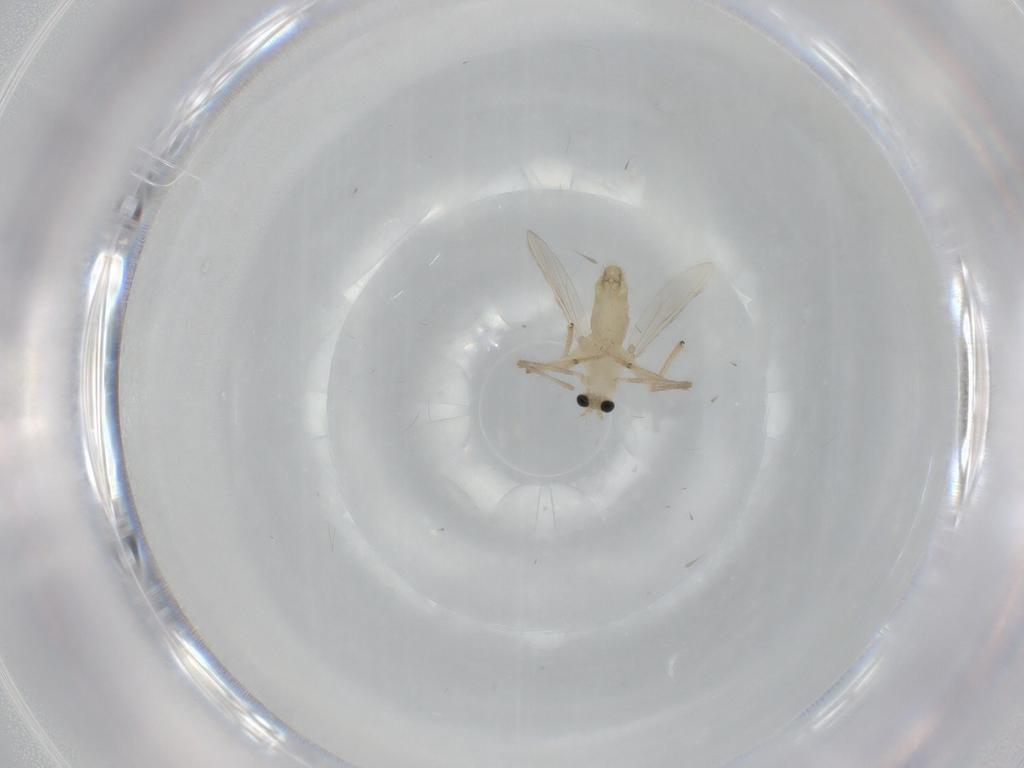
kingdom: Animalia
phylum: Arthropoda
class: Insecta
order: Diptera
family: Chironomidae
